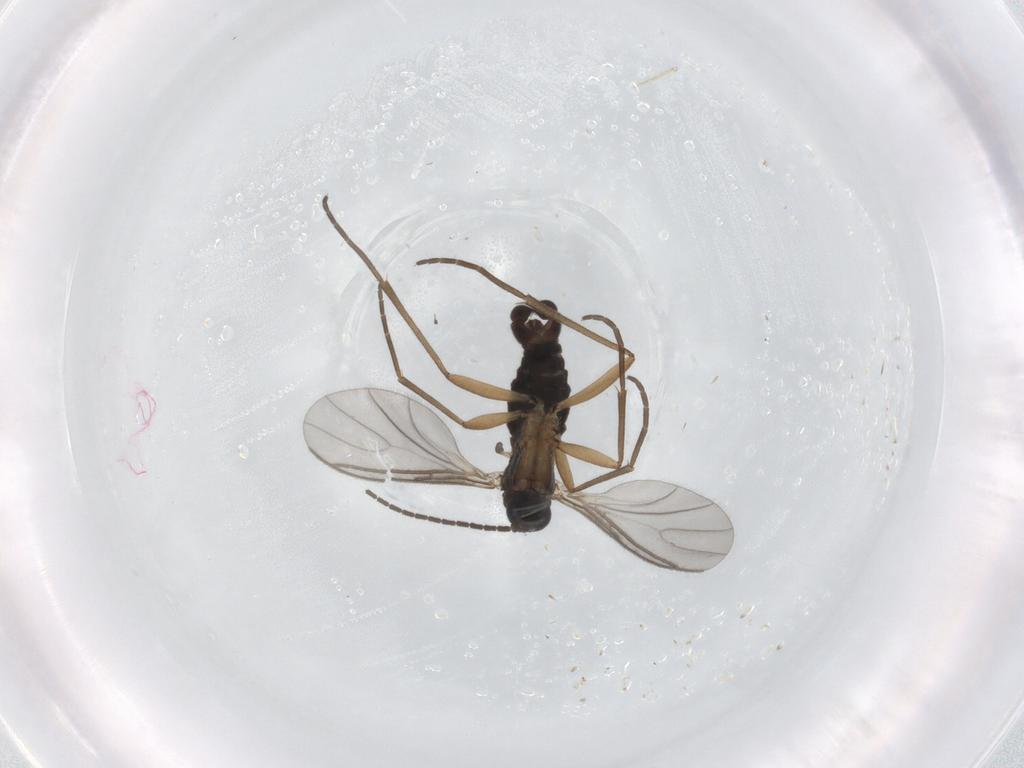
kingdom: Animalia
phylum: Arthropoda
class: Insecta
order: Diptera
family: Sciaridae
